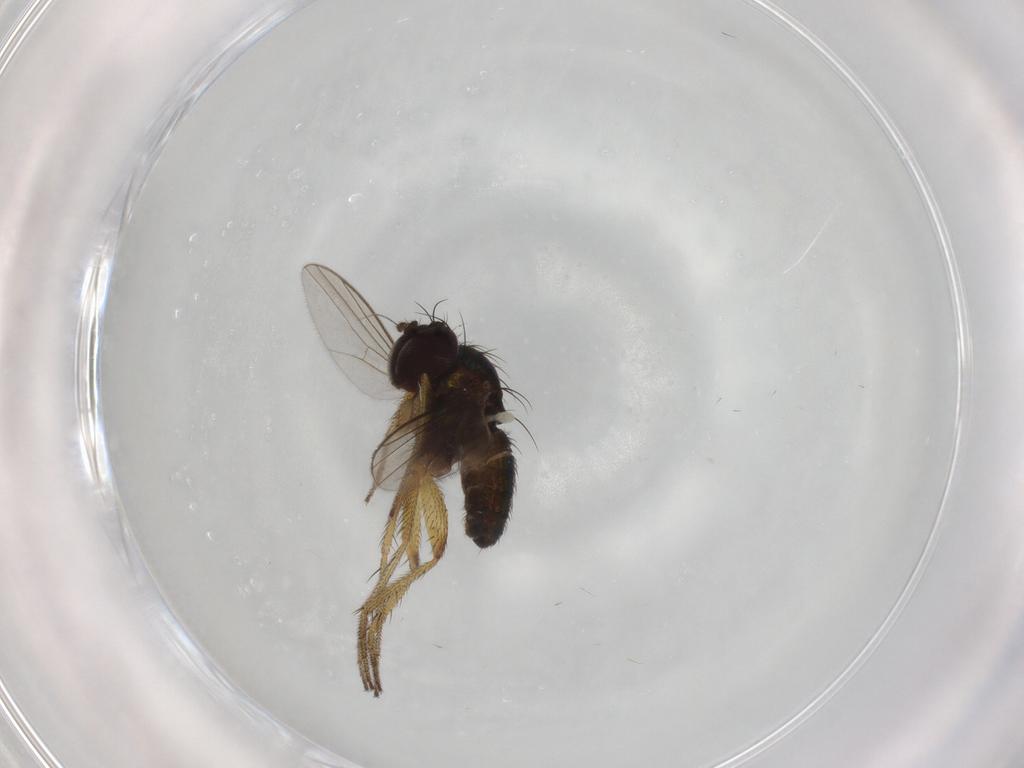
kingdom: Animalia
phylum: Arthropoda
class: Insecta
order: Diptera
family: Dolichopodidae
